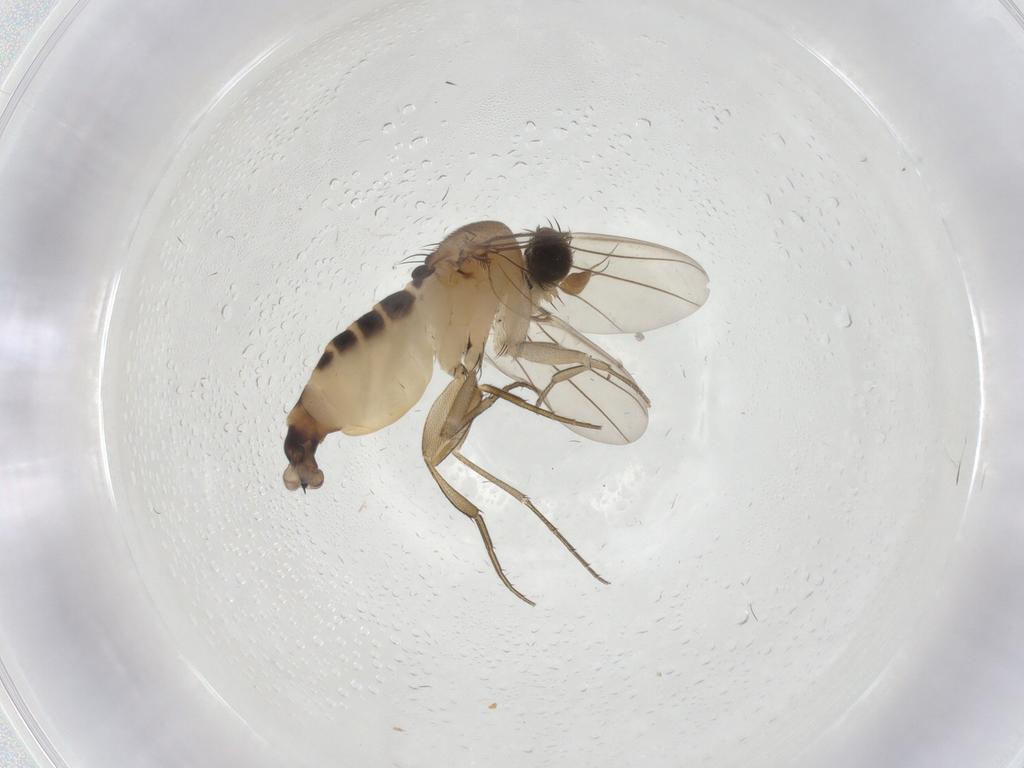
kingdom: Animalia
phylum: Arthropoda
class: Insecta
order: Diptera
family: Phoridae
